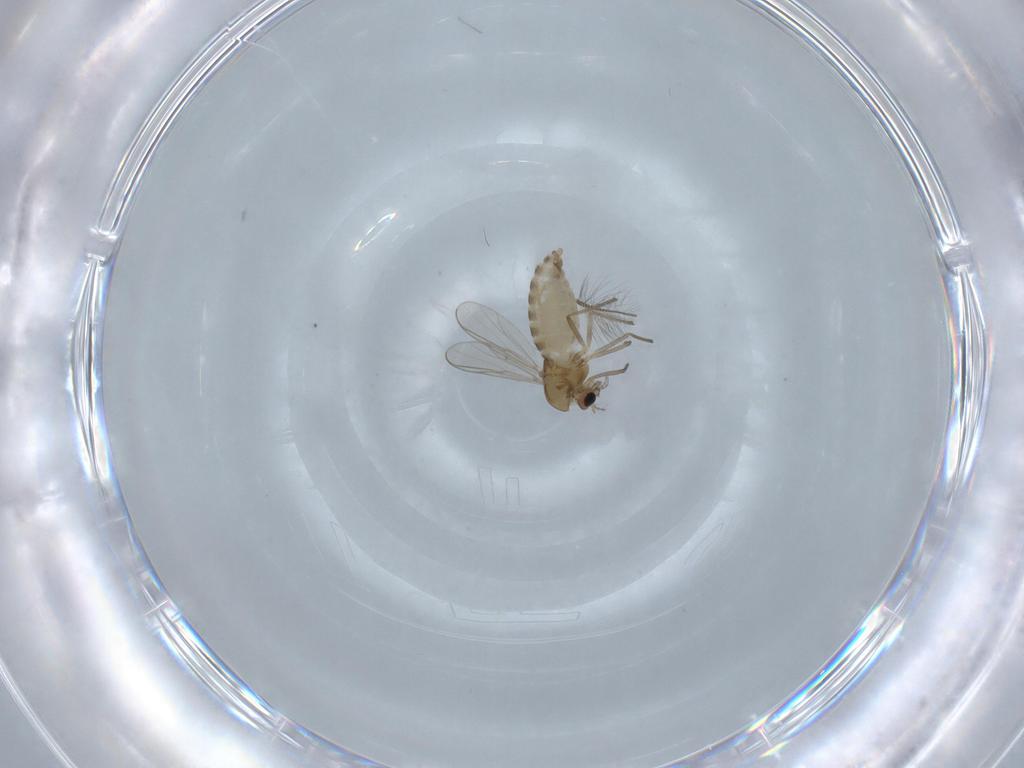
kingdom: Animalia
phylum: Arthropoda
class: Insecta
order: Diptera
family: Chironomidae
